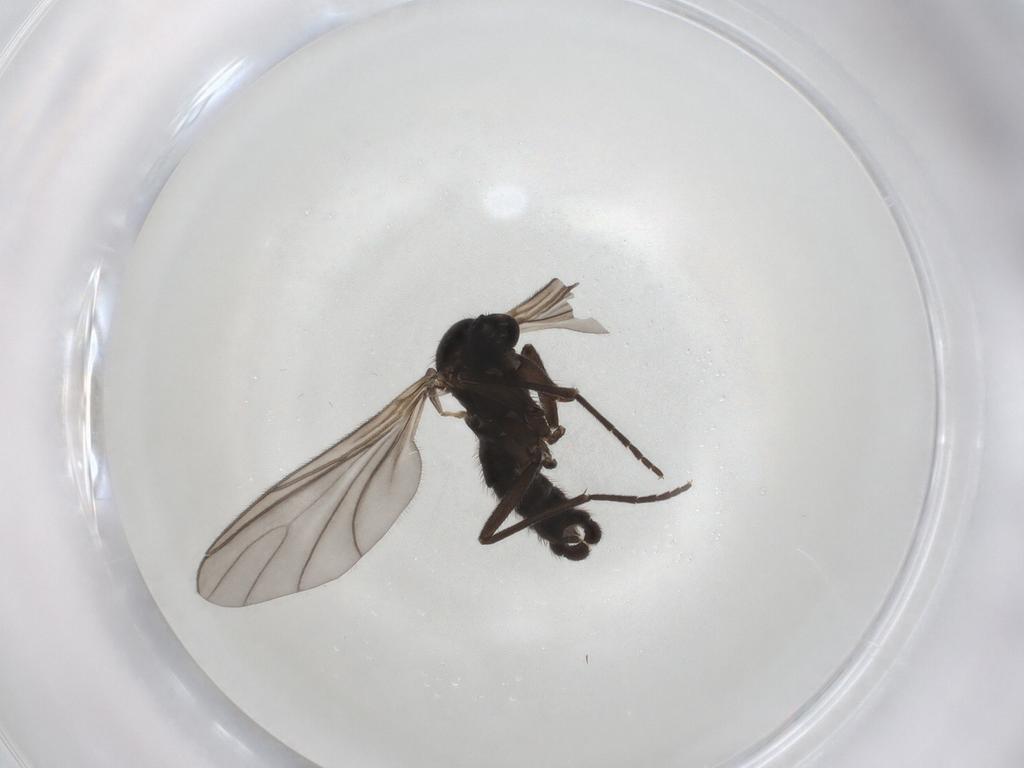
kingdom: Animalia
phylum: Arthropoda
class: Insecta
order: Diptera
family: Sciaridae
